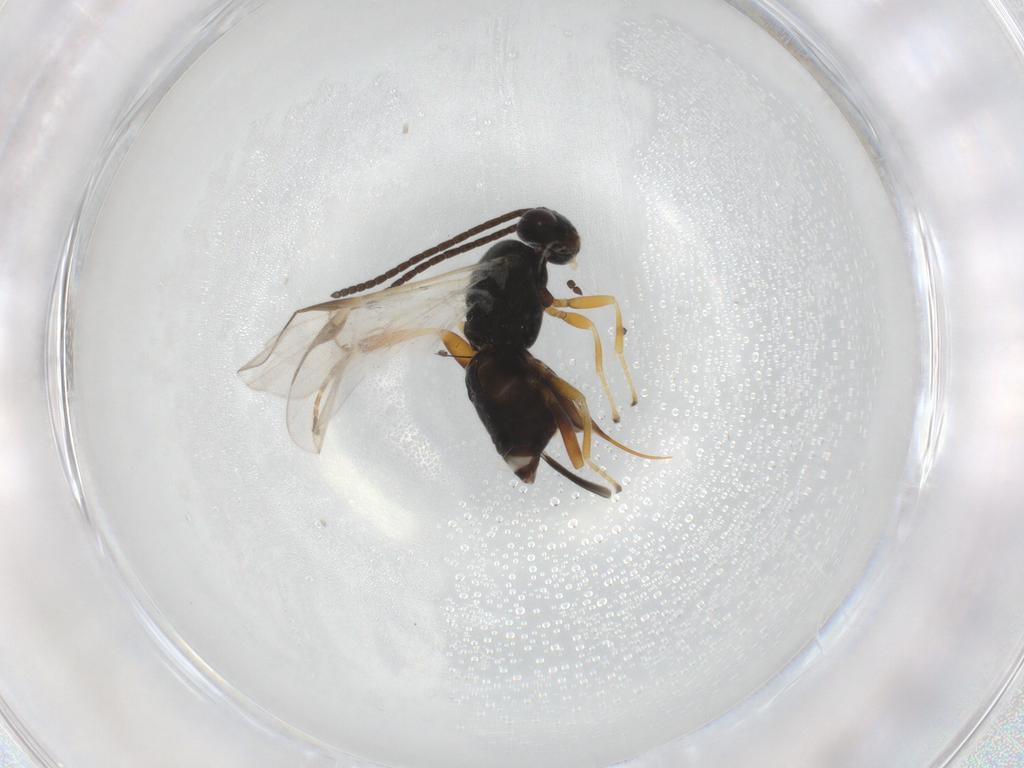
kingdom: Animalia
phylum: Arthropoda
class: Insecta
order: Hymenoptera
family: Braconidae
